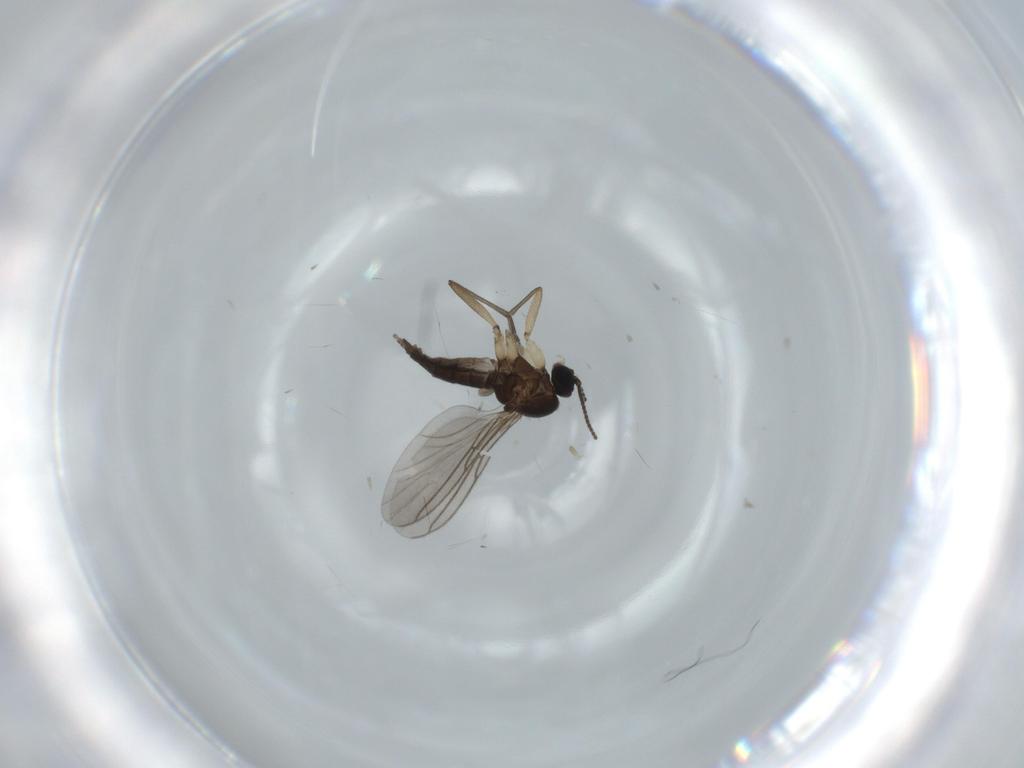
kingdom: Animalia
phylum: Arthropoda
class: Insecta
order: Diptera
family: Sciaridae
